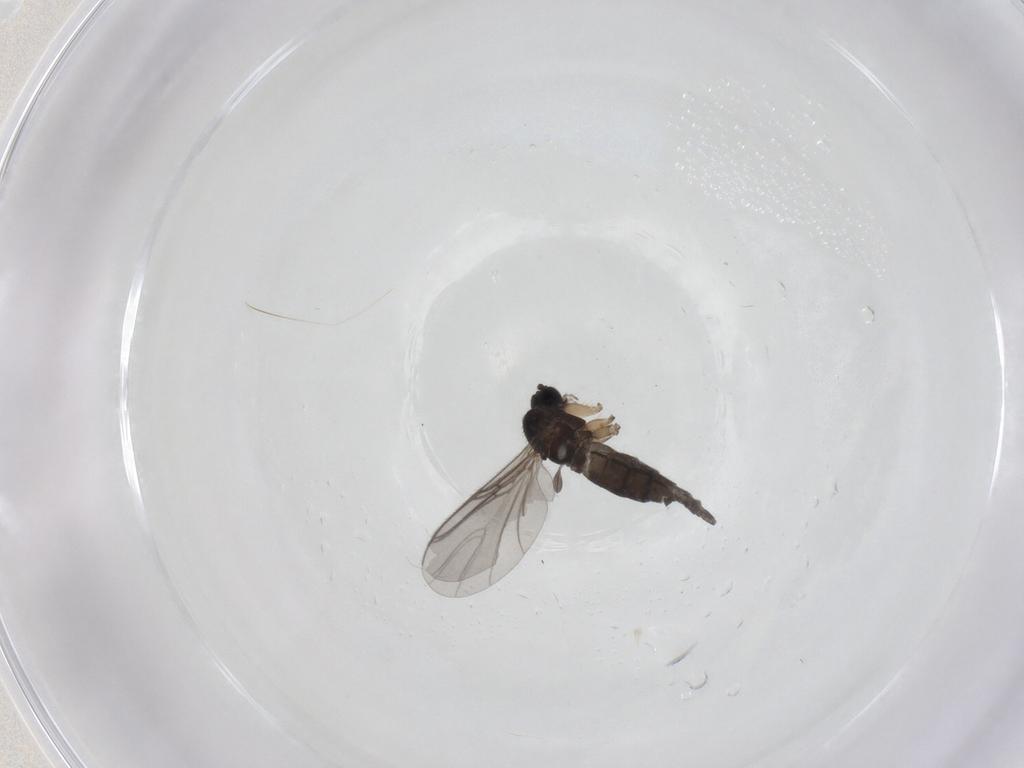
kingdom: Animalia
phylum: Arthropoda
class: Insecta
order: Diptera
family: Sciaridae
